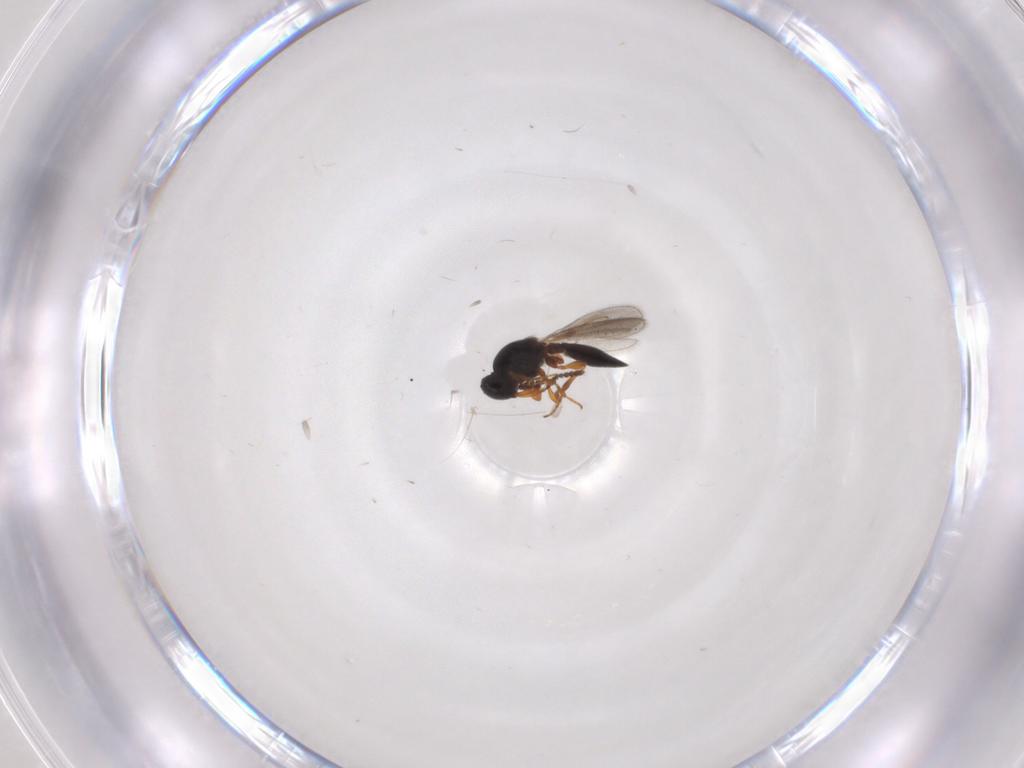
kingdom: Animalia
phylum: Arthropoda
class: Insecta
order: Hymenoptera
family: Platygastridae
